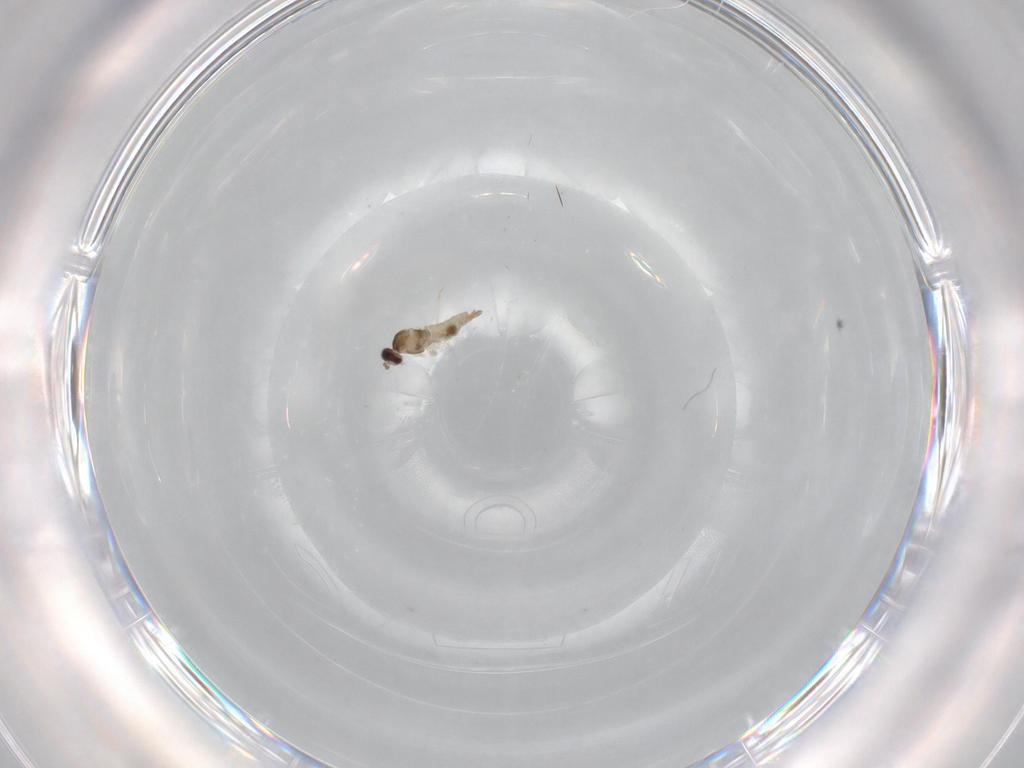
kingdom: Animalia
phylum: Arthropoda
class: Insecta
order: Diptera
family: Cecidomyiidae
